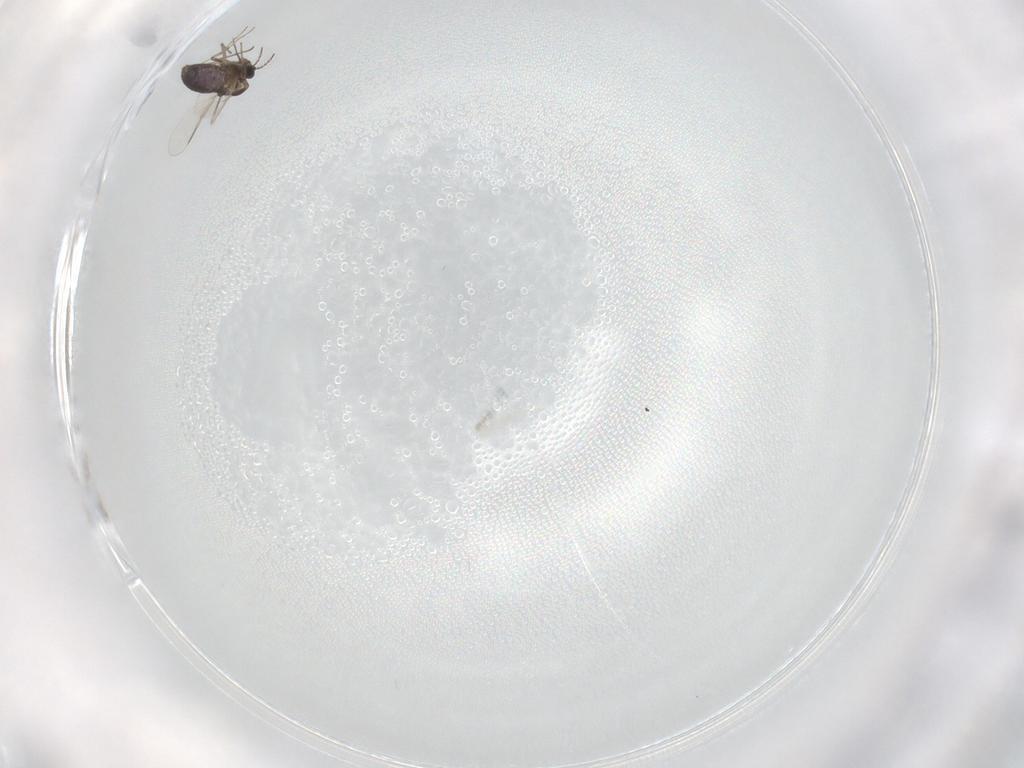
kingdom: Animalia
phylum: Arthropoda
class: Insecta
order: Diptera
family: Chironomidae
